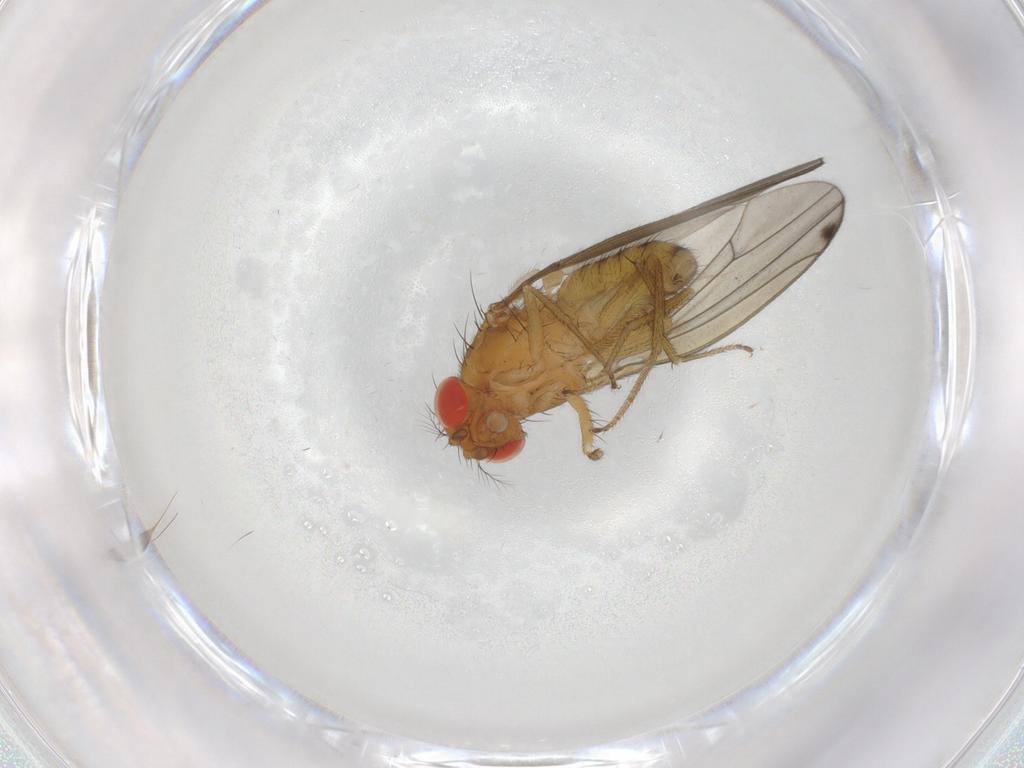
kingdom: Animalia
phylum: Arthropoda
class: Insecta
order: Diptera
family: Drosophilidae
